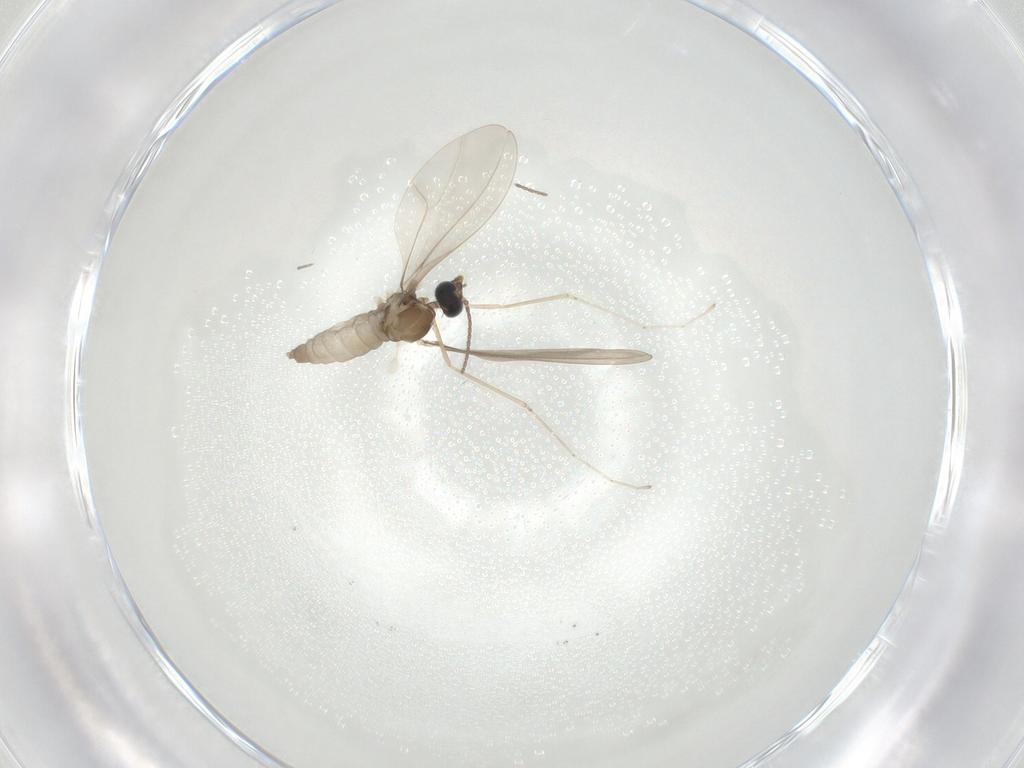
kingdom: Animalia
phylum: Arthropoda
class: Insecta
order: Diptera
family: Cecidomyiidae
